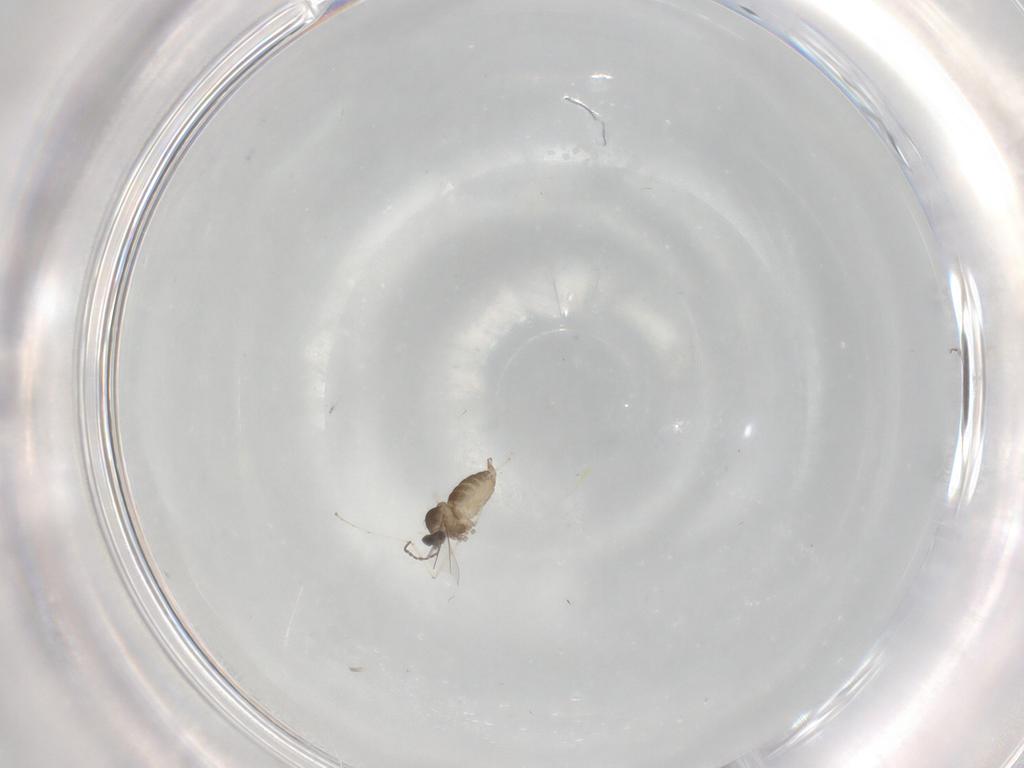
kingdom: Animalia
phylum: Arthropoda
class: Insecta
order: Diptera
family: Cecidomyiidae
